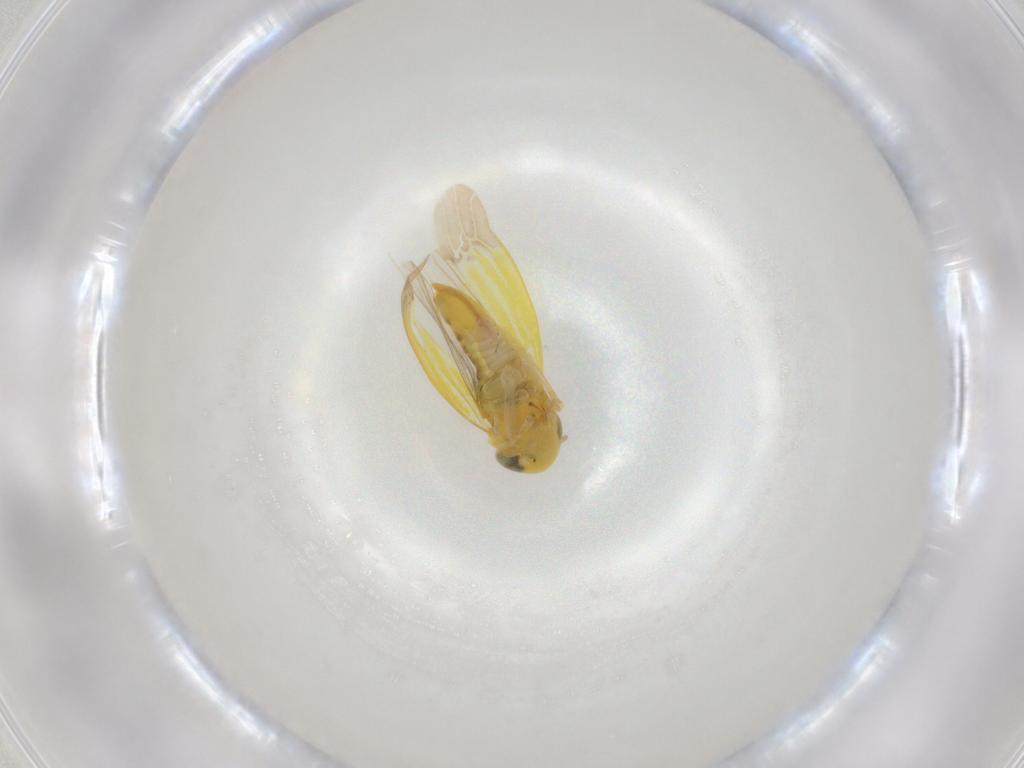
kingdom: Animalia
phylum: Arthropoda
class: Insecta
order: Hemiptera
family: Cicadellidae
